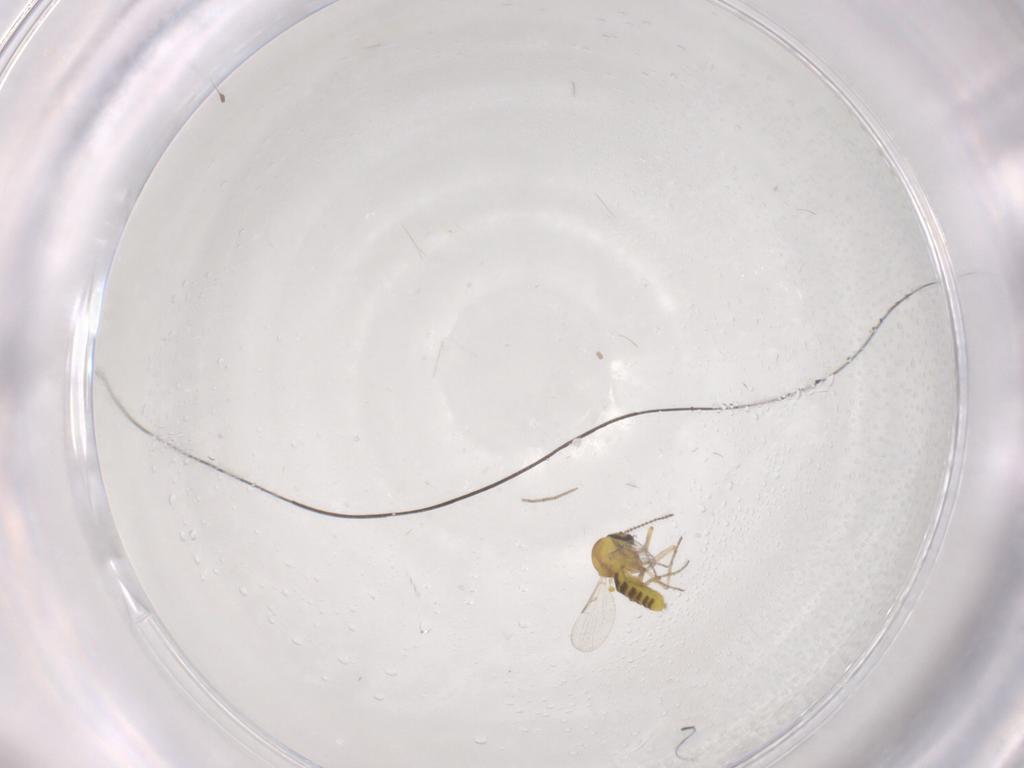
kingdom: Animalia
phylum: Arthropoda
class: Insecta
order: Diptera
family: Ceratopogonidae
